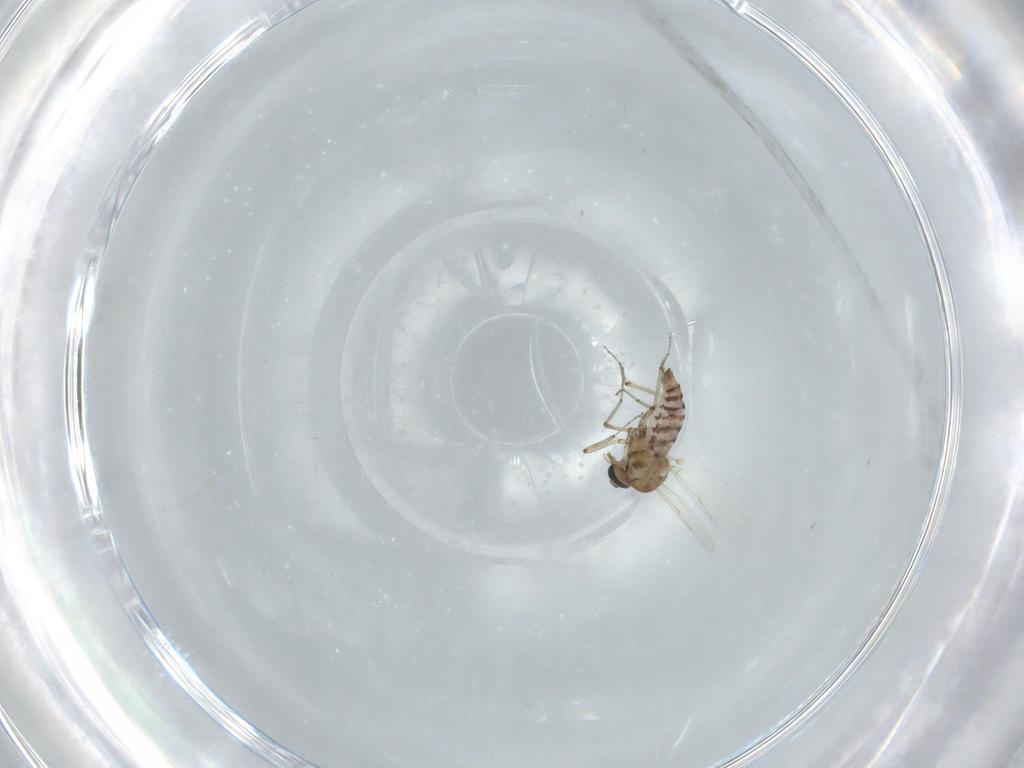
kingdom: Animalia
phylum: Arthropoda
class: Insecta
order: Diptera
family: Ceratopogonidae
